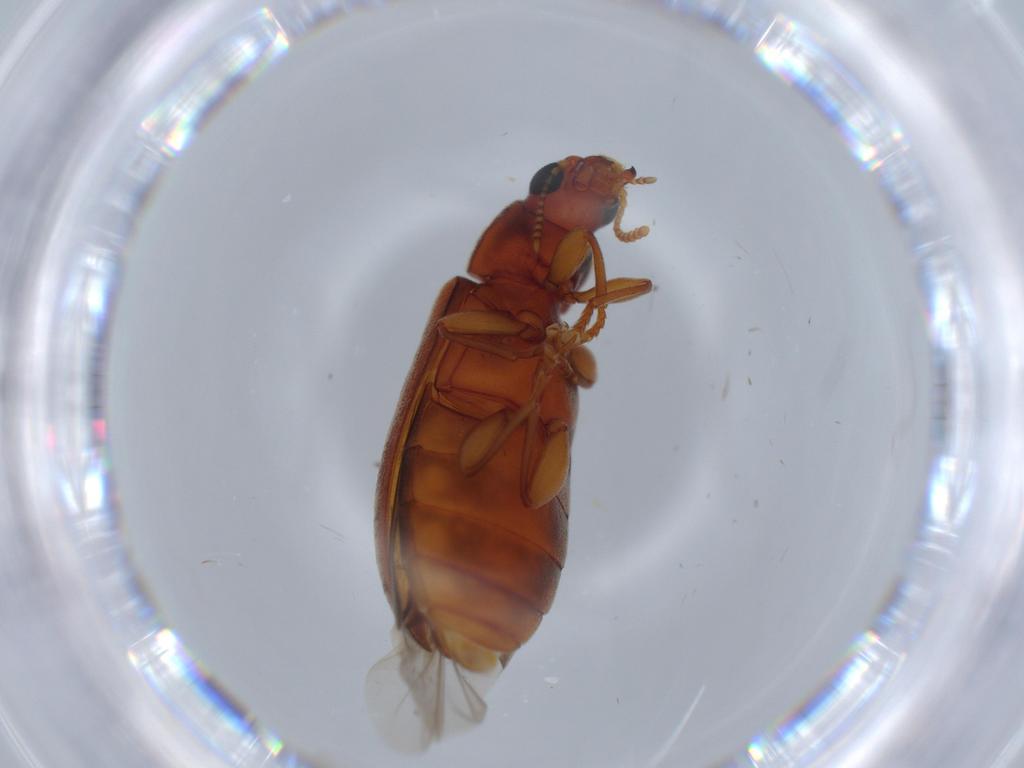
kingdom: Animalia
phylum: Arthropoda
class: Insecta
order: Coleoptera
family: Mycteridae
